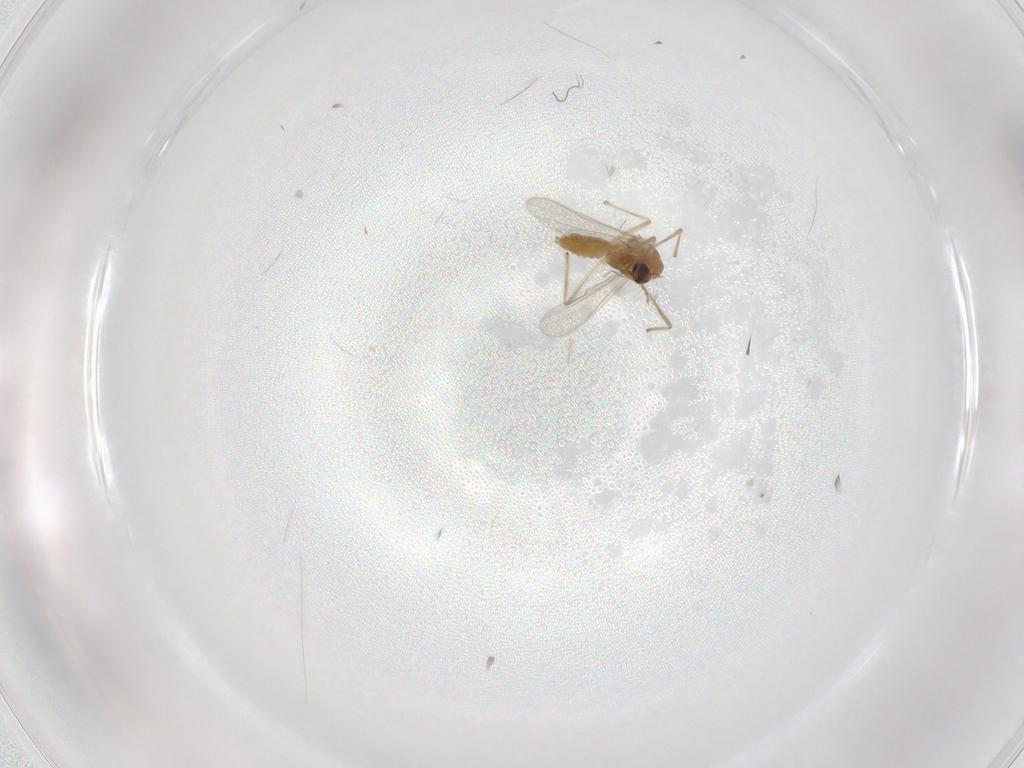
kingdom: Animalia
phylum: Arthropoda
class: Insecta
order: Diptera
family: Chironomidae
